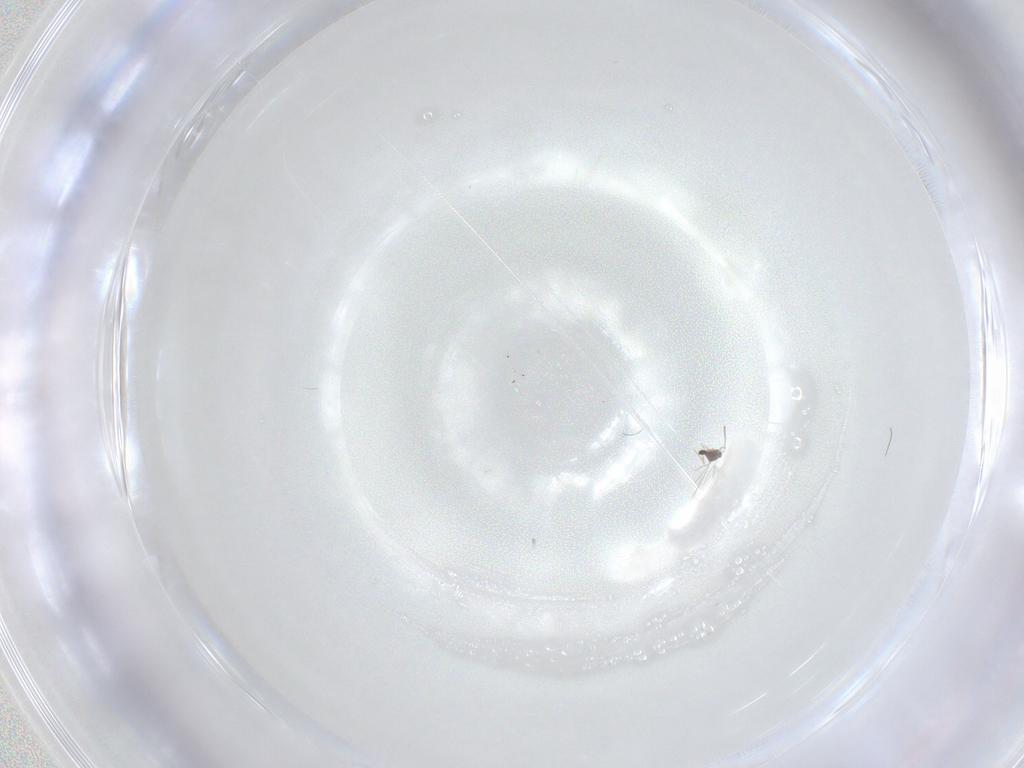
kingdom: Animalia
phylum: Arthropoda
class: Insecta
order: Diptera
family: Sciaridae
